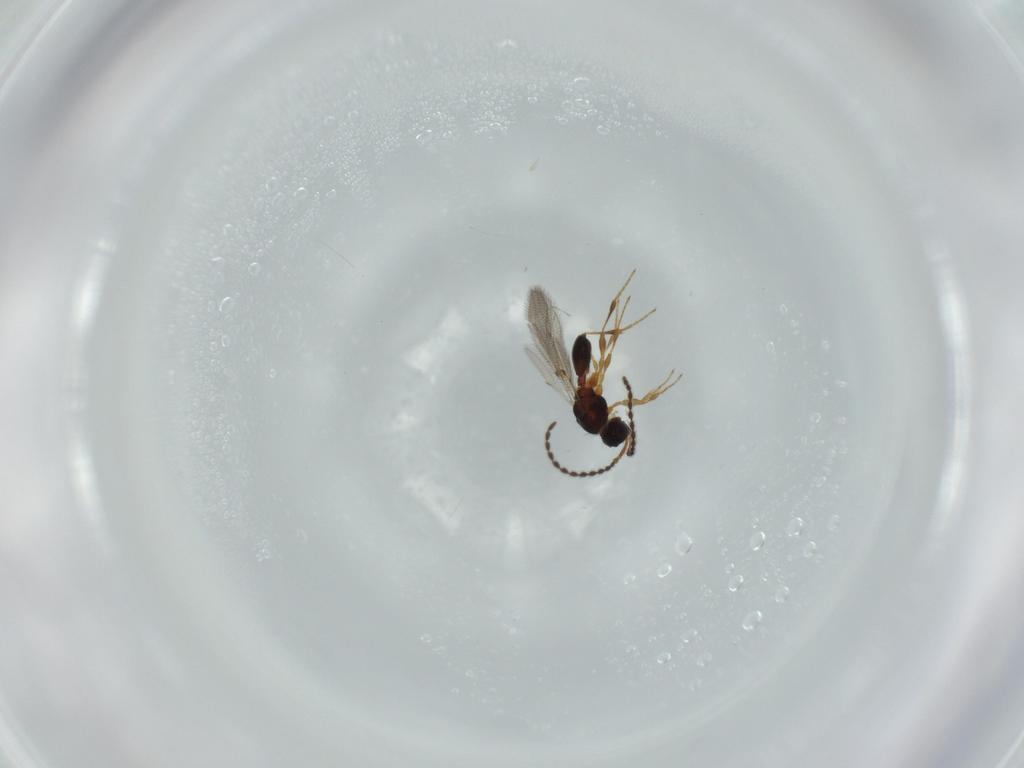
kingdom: Animalia
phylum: Arthropoda
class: Insecta
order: Hymenoptera
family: Diapriidae
